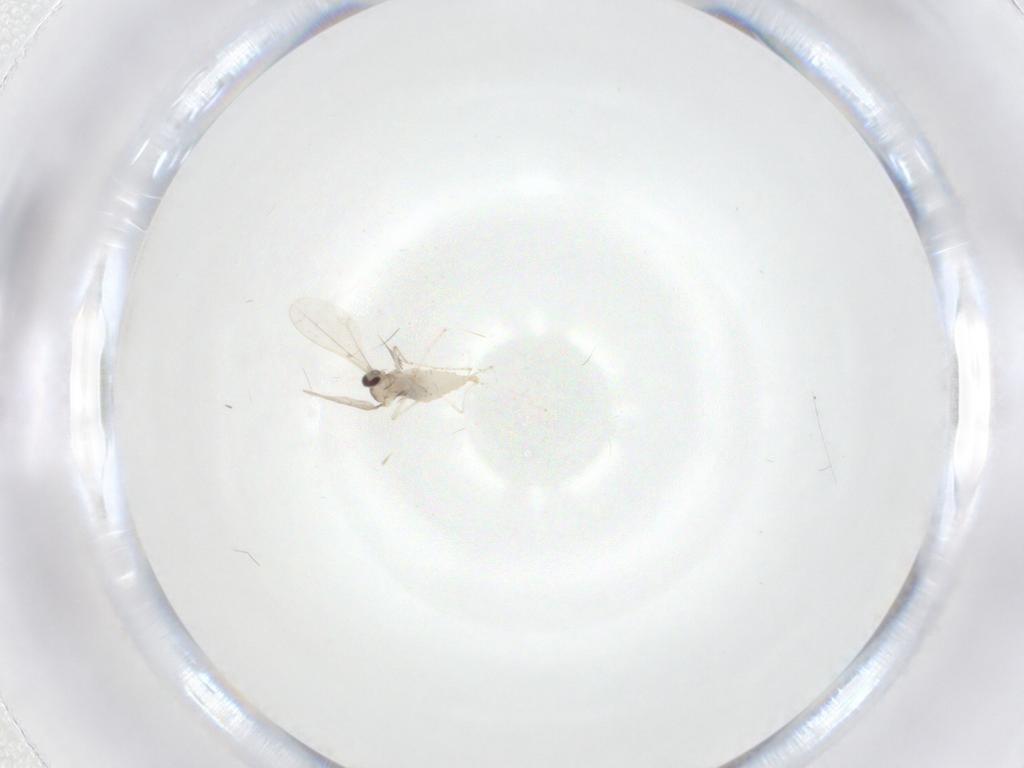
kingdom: Animalia
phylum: Arthropoda
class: Insecta
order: Diptera
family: Cecidomyiidae
